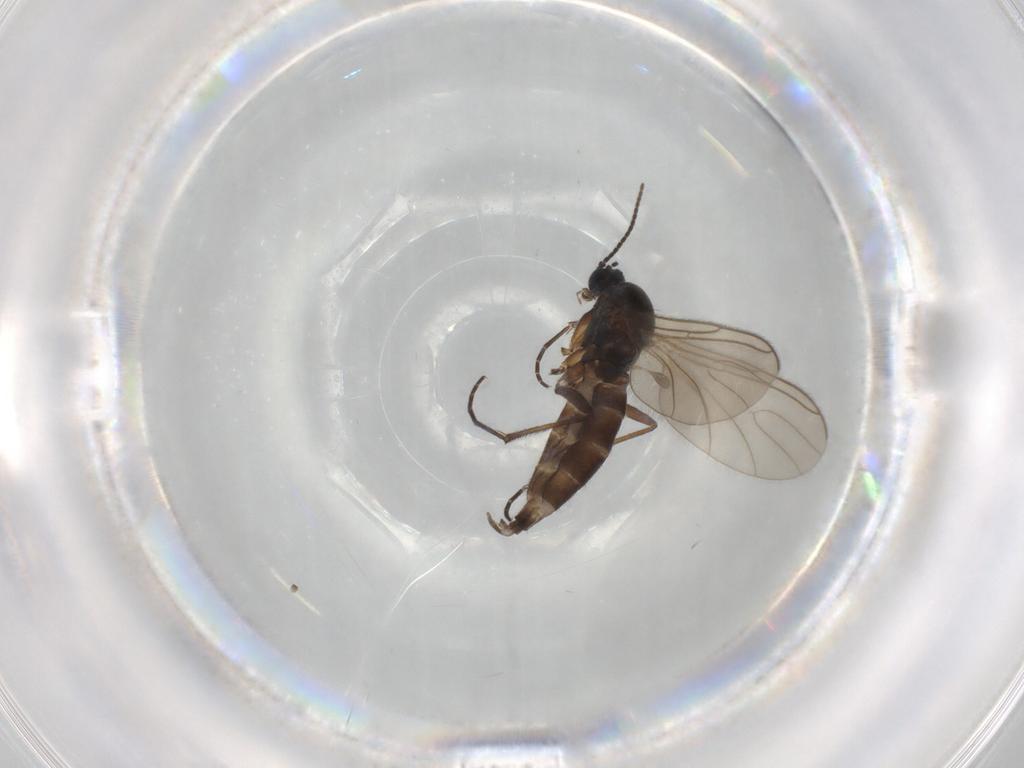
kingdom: Animalia
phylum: Arthropoda
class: Insecta
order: Diptera
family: Sciaridae
